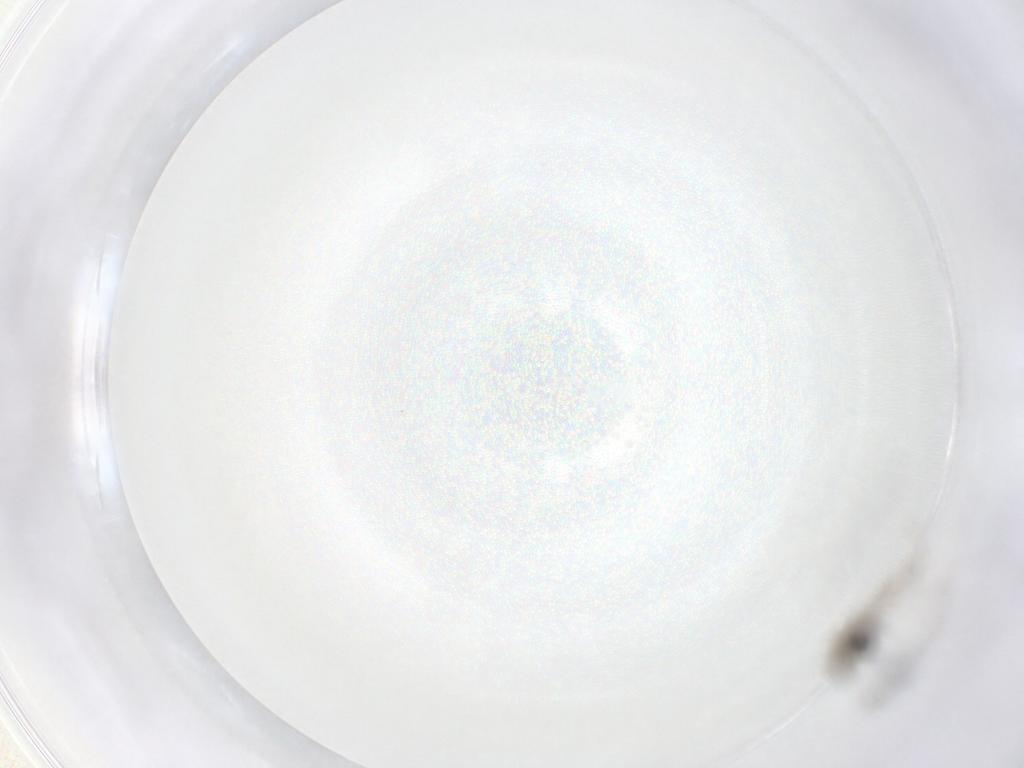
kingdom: Animalia
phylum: Arthropoda
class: Insecta
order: Diptera
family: Chironomidae
